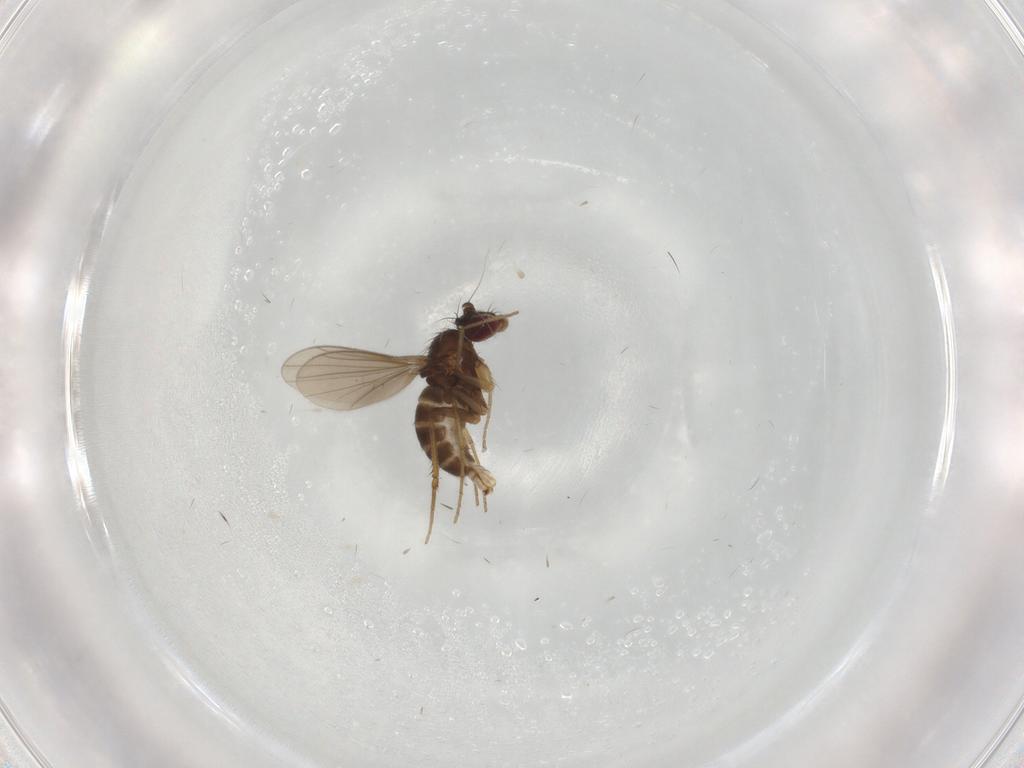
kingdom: Animalia
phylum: Arthropoda
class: Insecta
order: Diptera
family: Dolichopodidae
